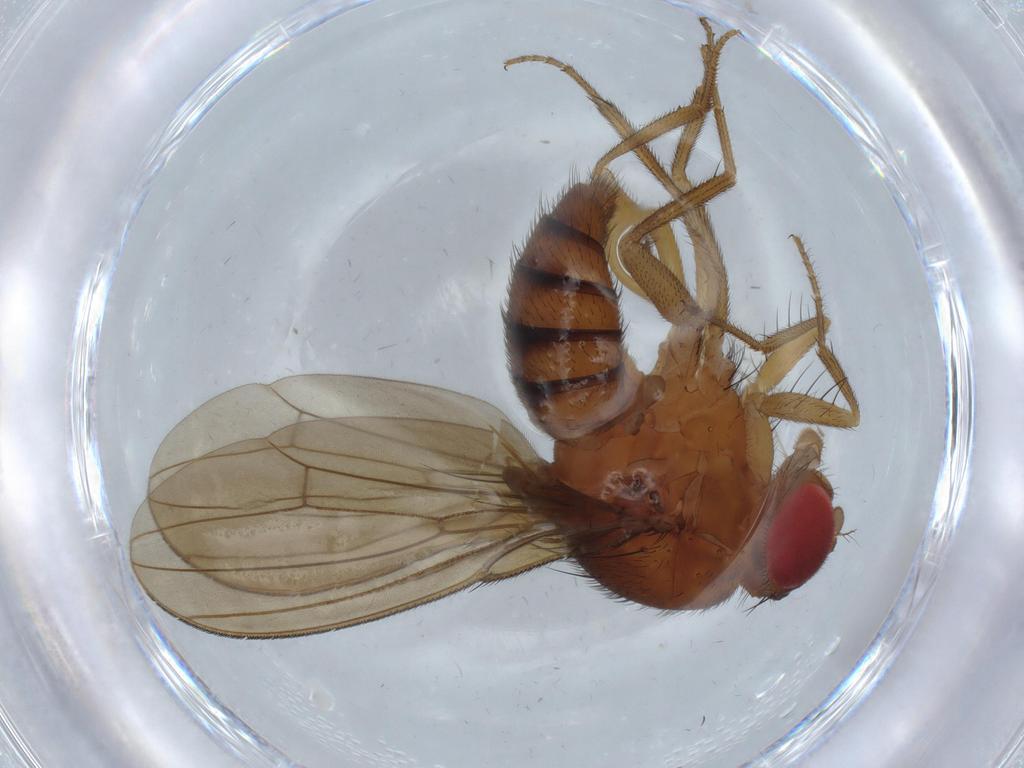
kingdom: Animalia
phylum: Arthropoda
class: Insecta
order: Diptera
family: Drosophilidae
